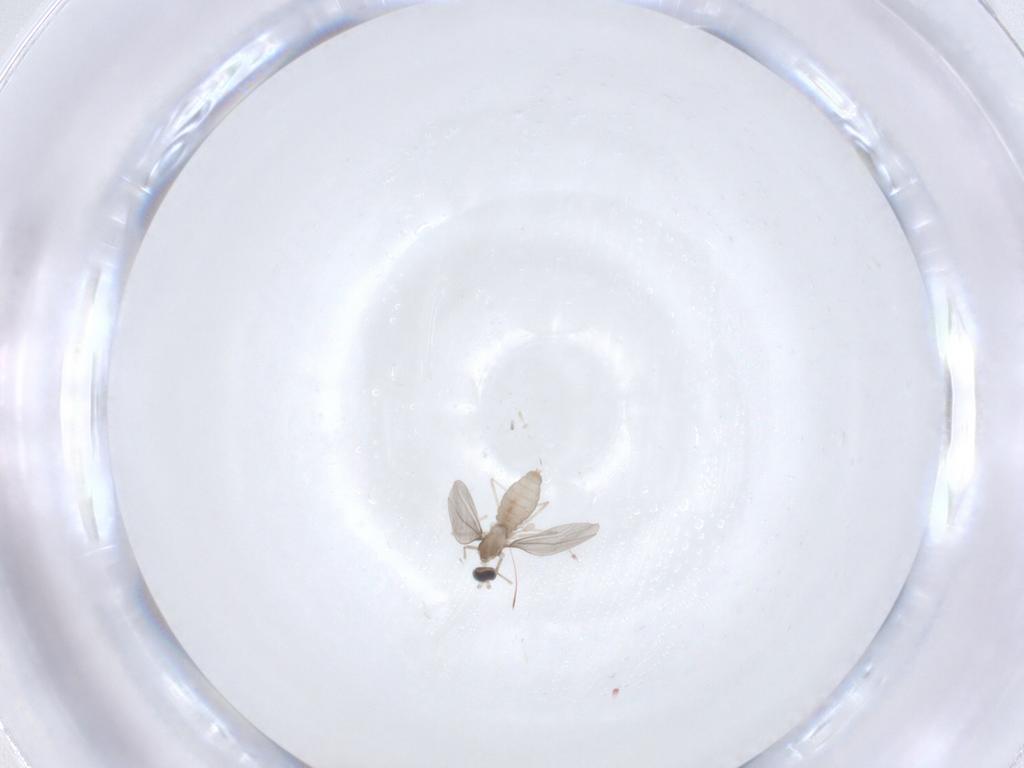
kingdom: Animalia
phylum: Arthropoda
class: Insecta
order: Diptera
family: Cecidomyiidae
